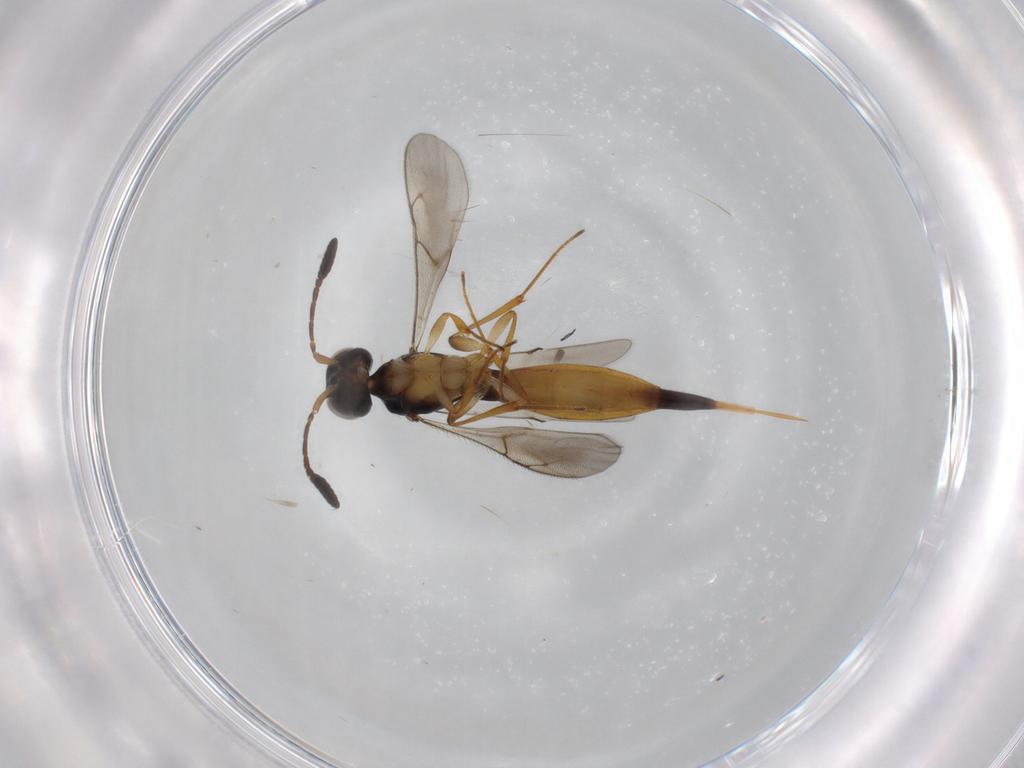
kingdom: Animalia
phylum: Arthropoda
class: Insecta
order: Hymenoptera
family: Scelionidae
